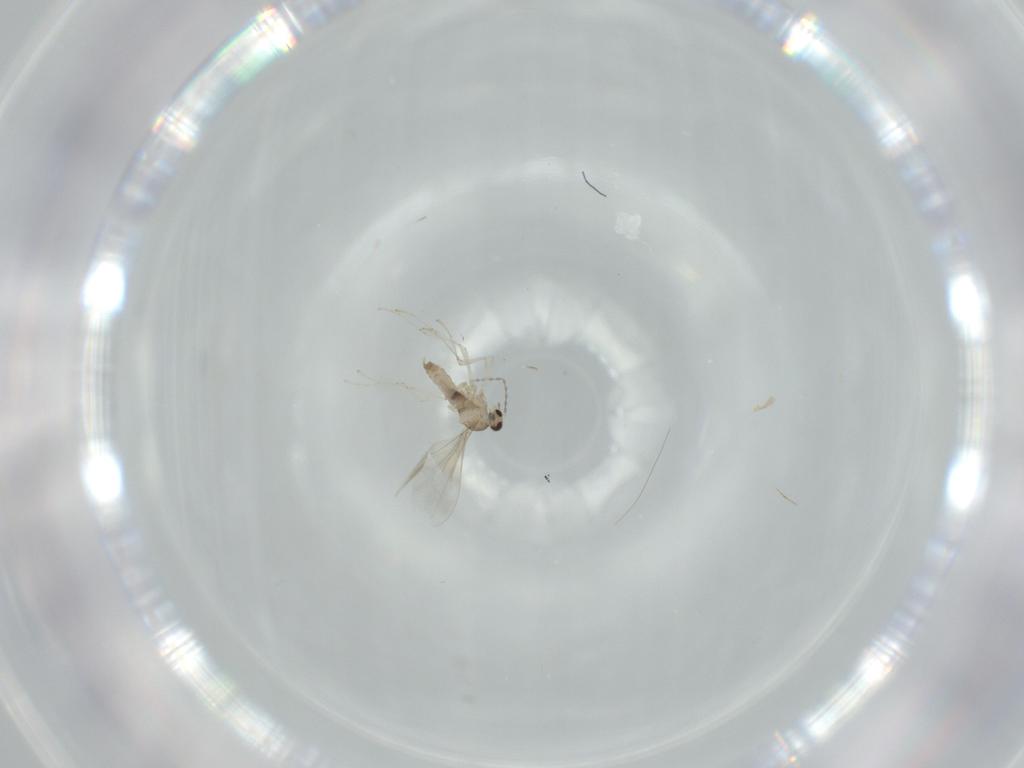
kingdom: Animalia
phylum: Arthropoda
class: Insecta
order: Diptera
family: Cecidomyiidae
